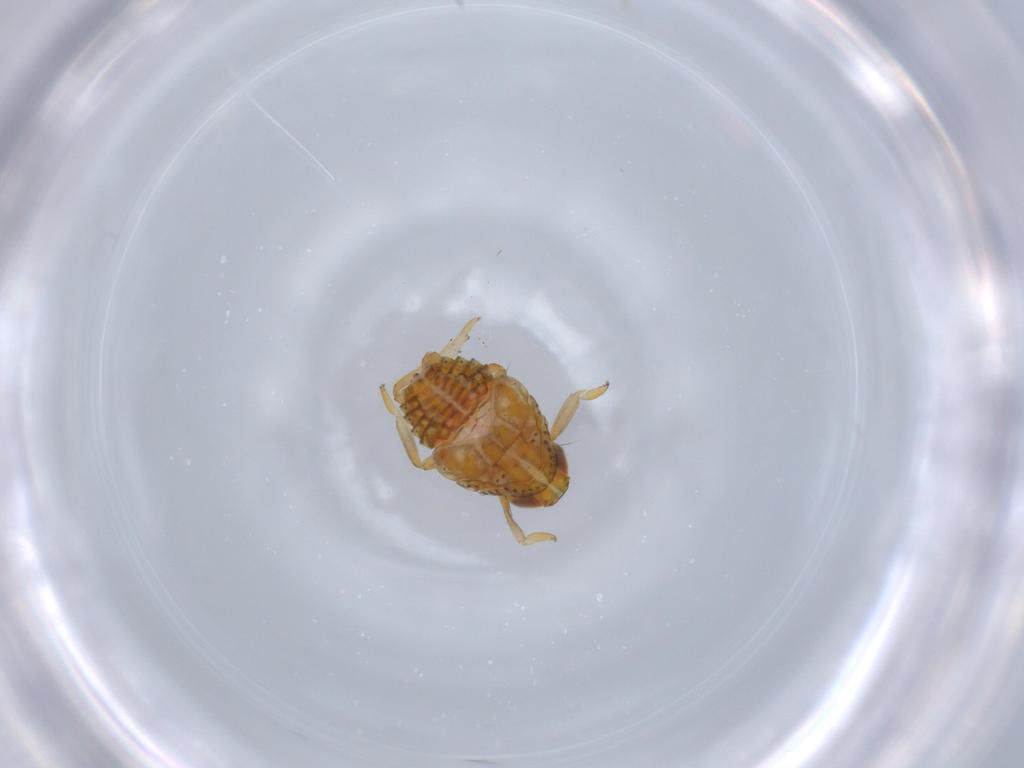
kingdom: Animalia
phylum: Arthropoda
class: Insecta
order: Hemiptera
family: Issidae
